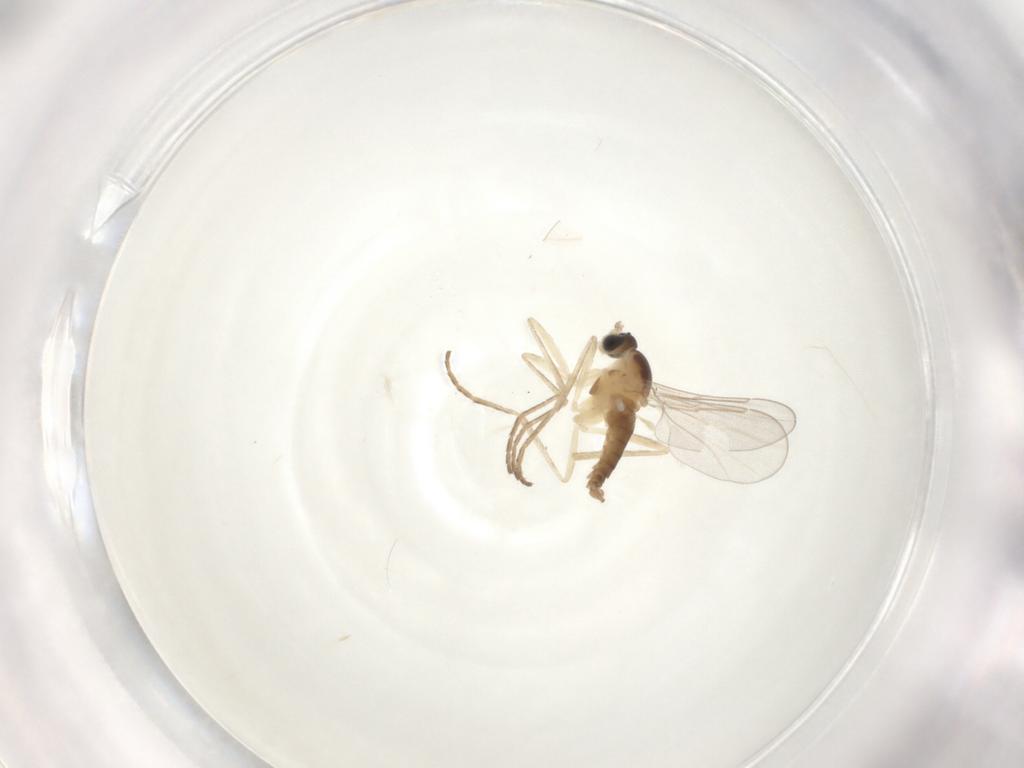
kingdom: Animalia
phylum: Arthropoda
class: Insecta
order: Diptera
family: Cecidomyiidae
